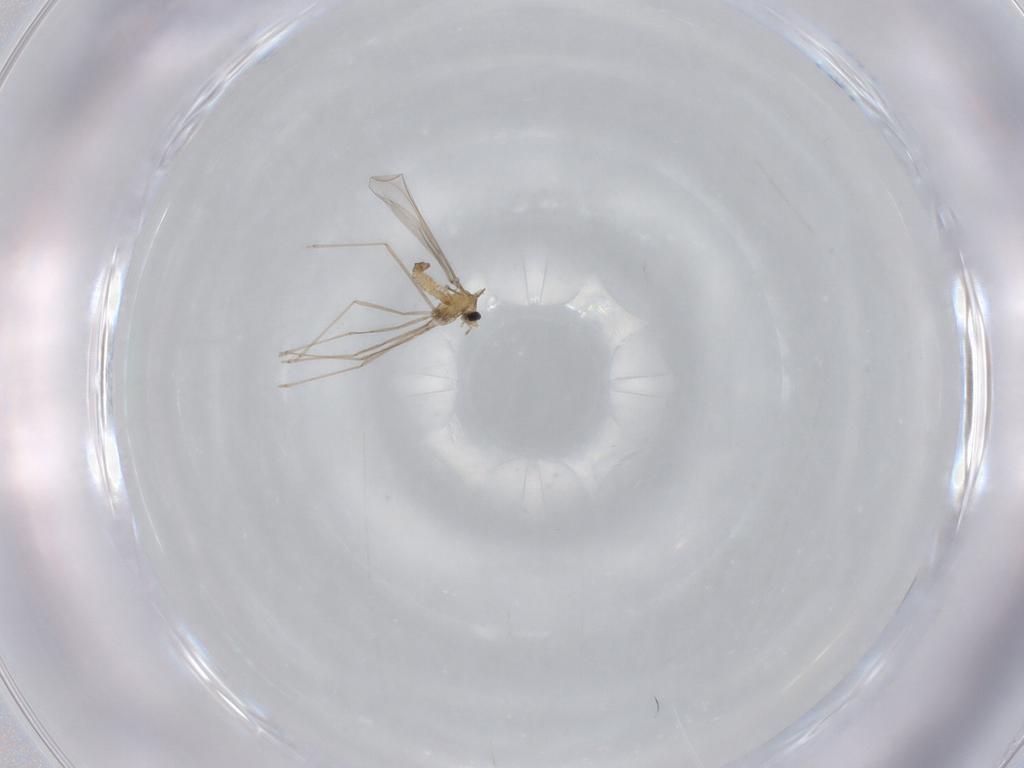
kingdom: Animalia
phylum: Arthropoda
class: Insecta
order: Diptera
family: Cecidomyiidae
